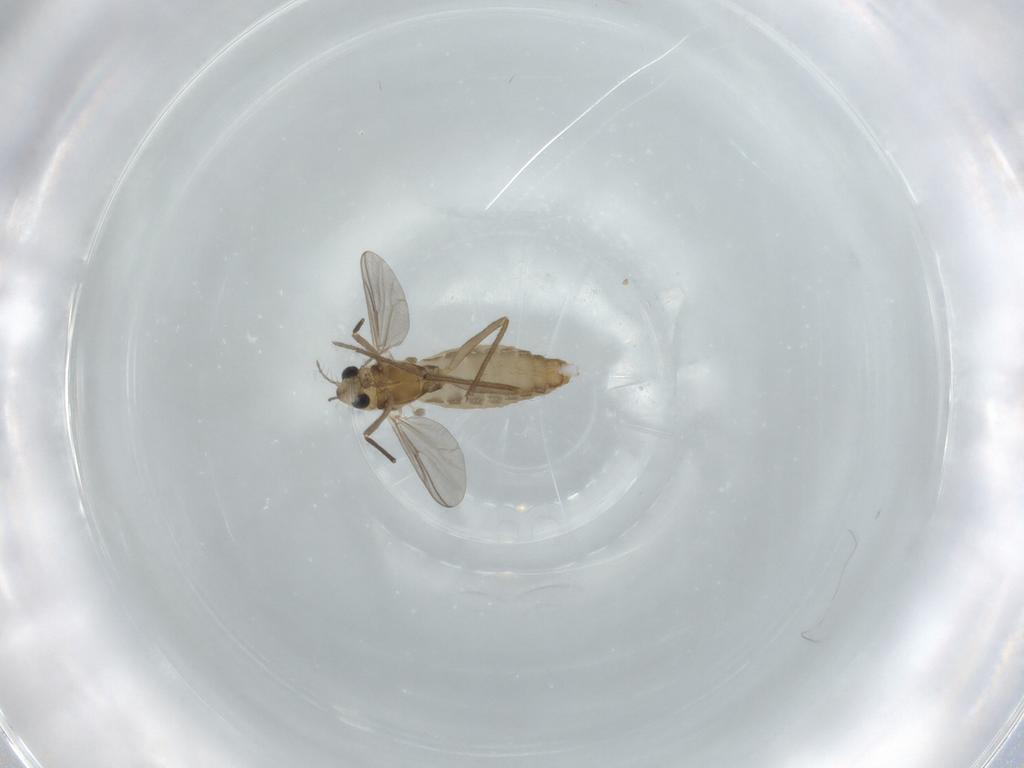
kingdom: Animalia
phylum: Arthropoda
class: Insecta
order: Diptera
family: Chironomidae
